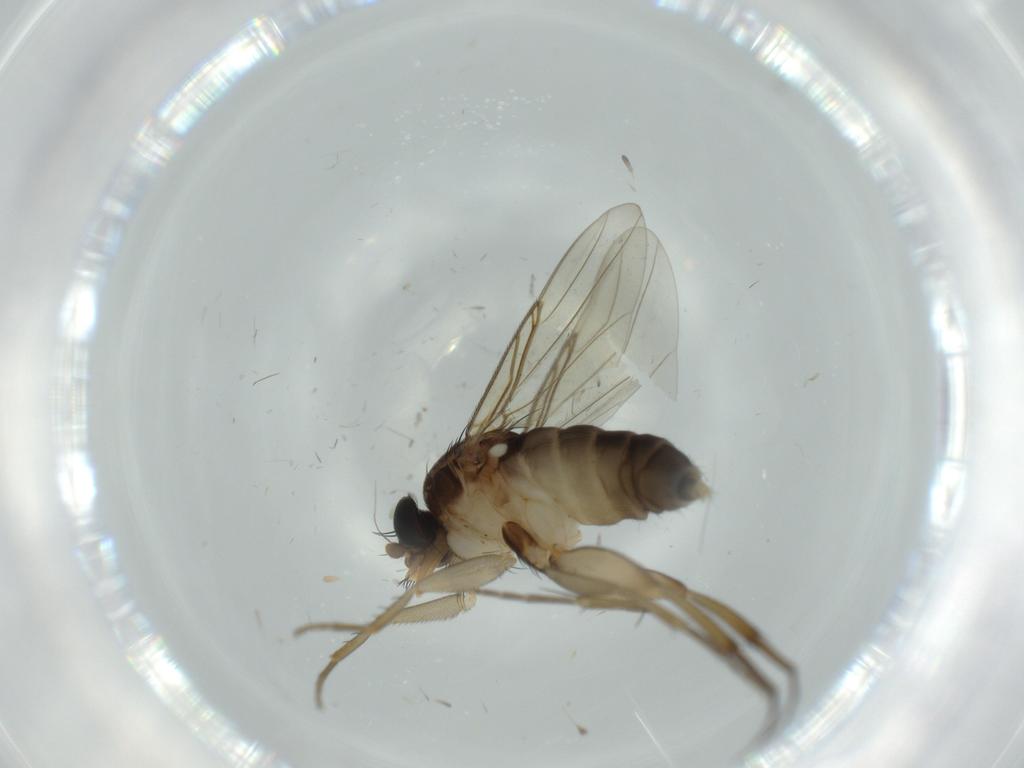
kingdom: Animalia
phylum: Arthropoda
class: Insecta
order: Diptera
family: Phoridae
